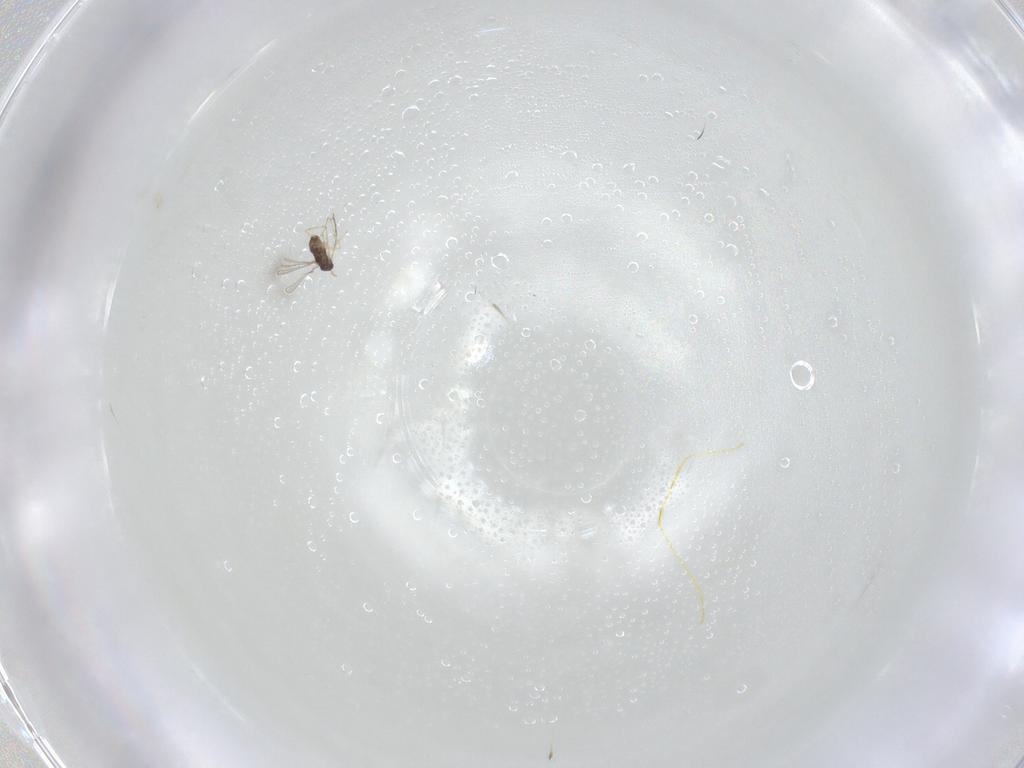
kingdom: Animalia
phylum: Arthropoda
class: Insecta
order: Hymenoptera
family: Mymaridae
